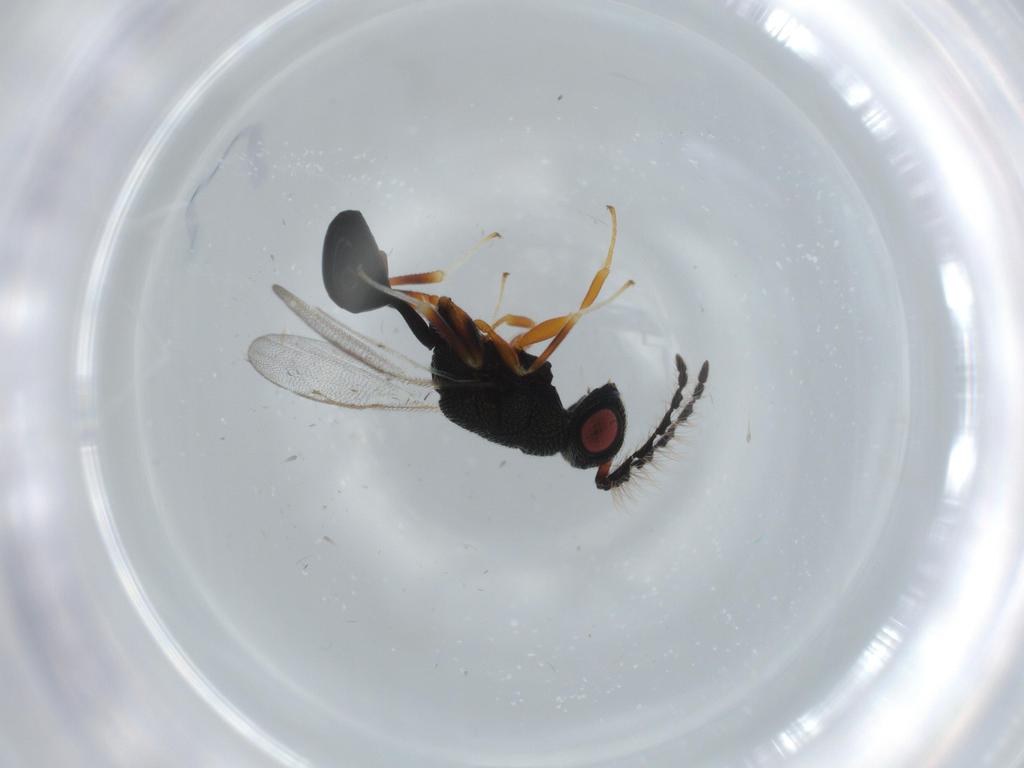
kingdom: Animalia
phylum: Arthropoda
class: Insecta
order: Hymenoptera
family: Eurytomidae
